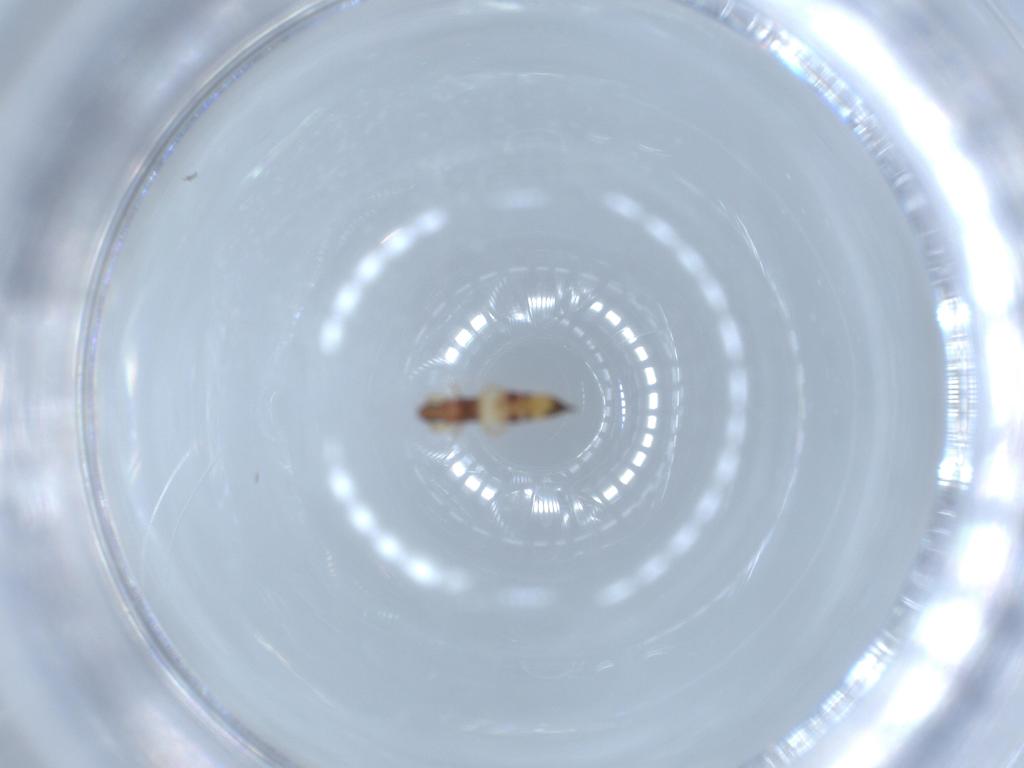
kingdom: Animalia
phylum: Arthropoda
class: Insecta
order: Thysanoptera
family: Phlaeothripidae
